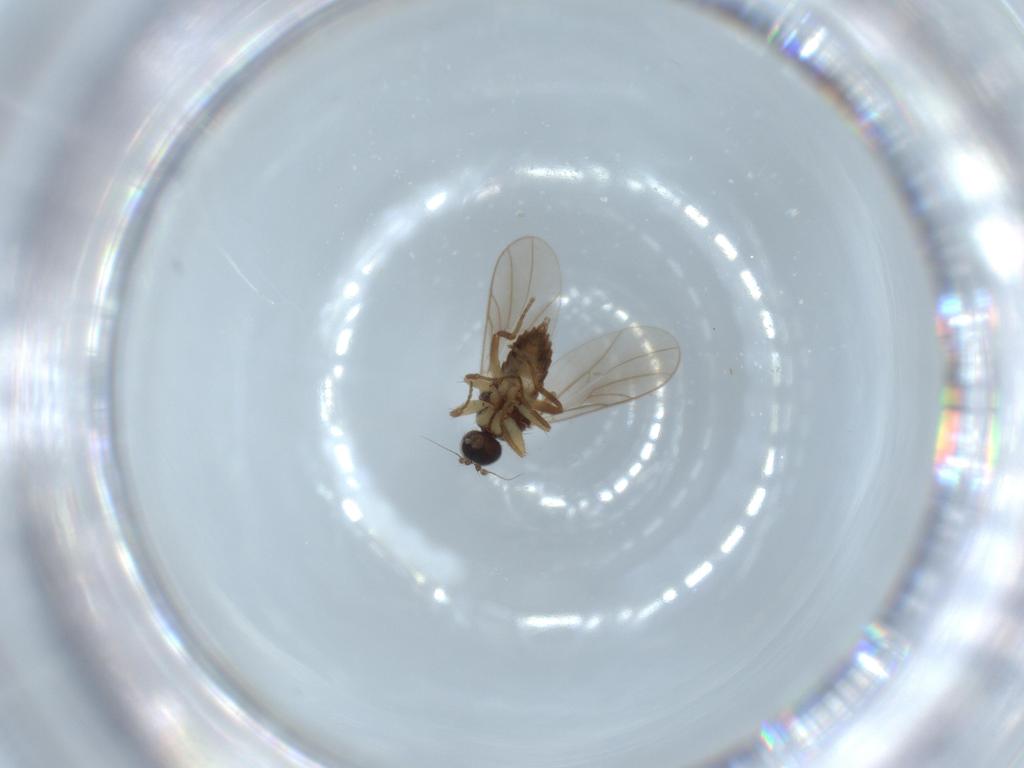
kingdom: Animalia
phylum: Arthropoda
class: Insecta
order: Diptera
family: Hybotidae
